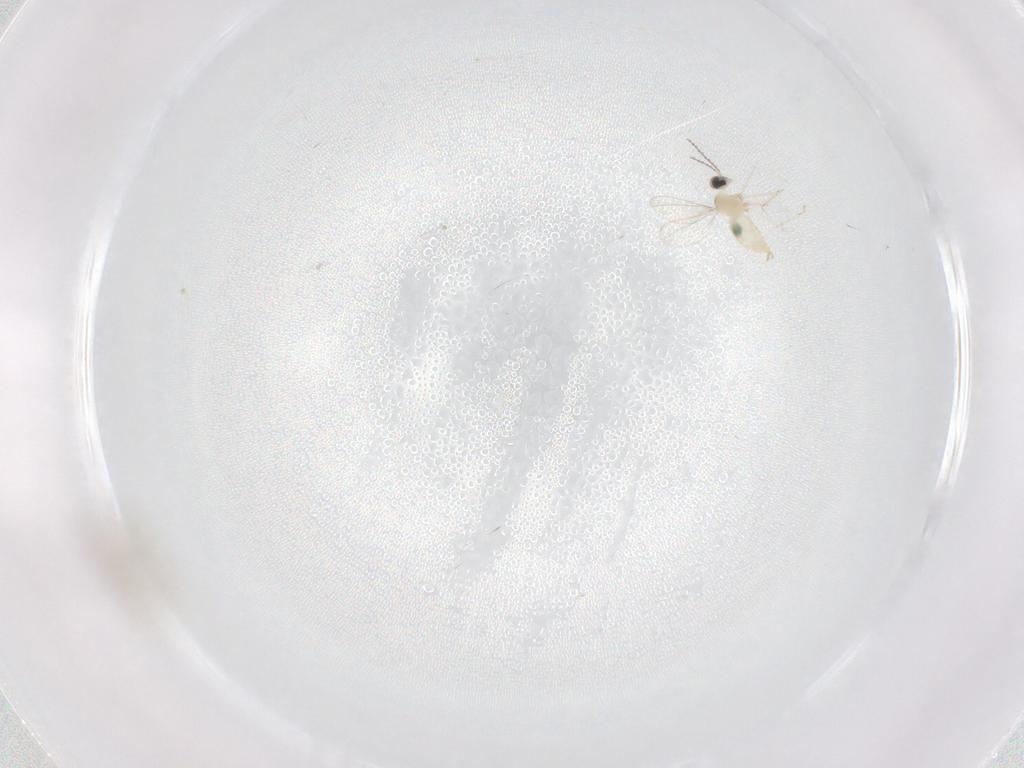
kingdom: Animalia
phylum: Arthropoda
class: Insecta
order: Diptera
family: Cecidomyiidae
